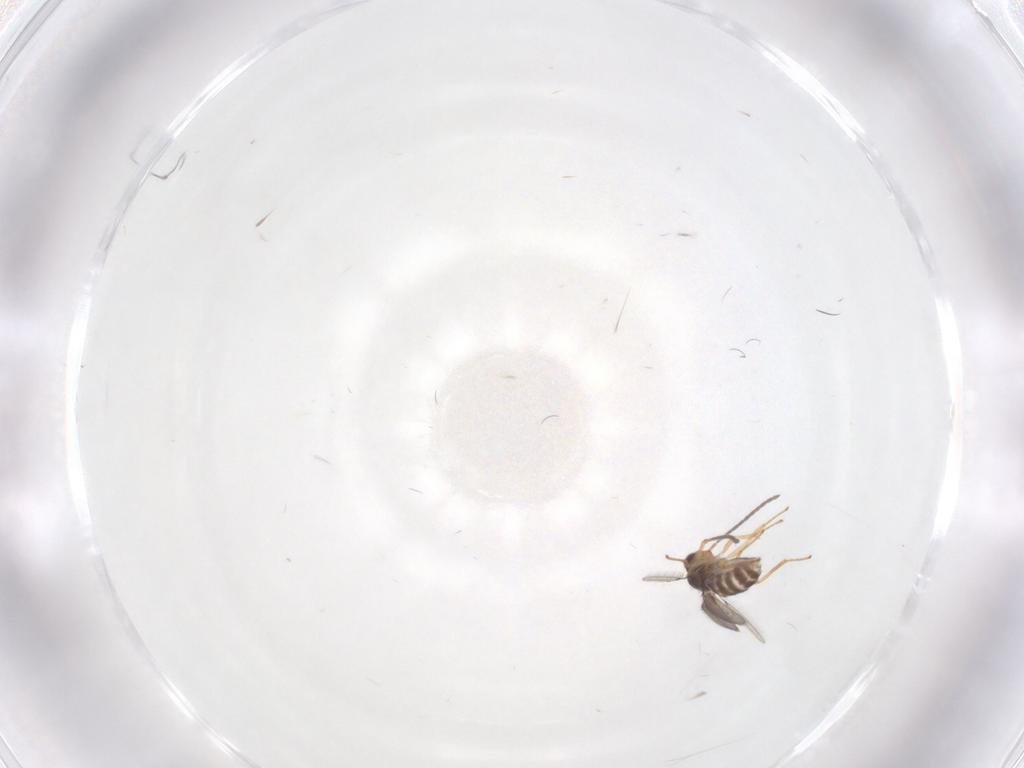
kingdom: Animalia
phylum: Arthropoda
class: Insecta
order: Hymenoptera
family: Mymaridae
